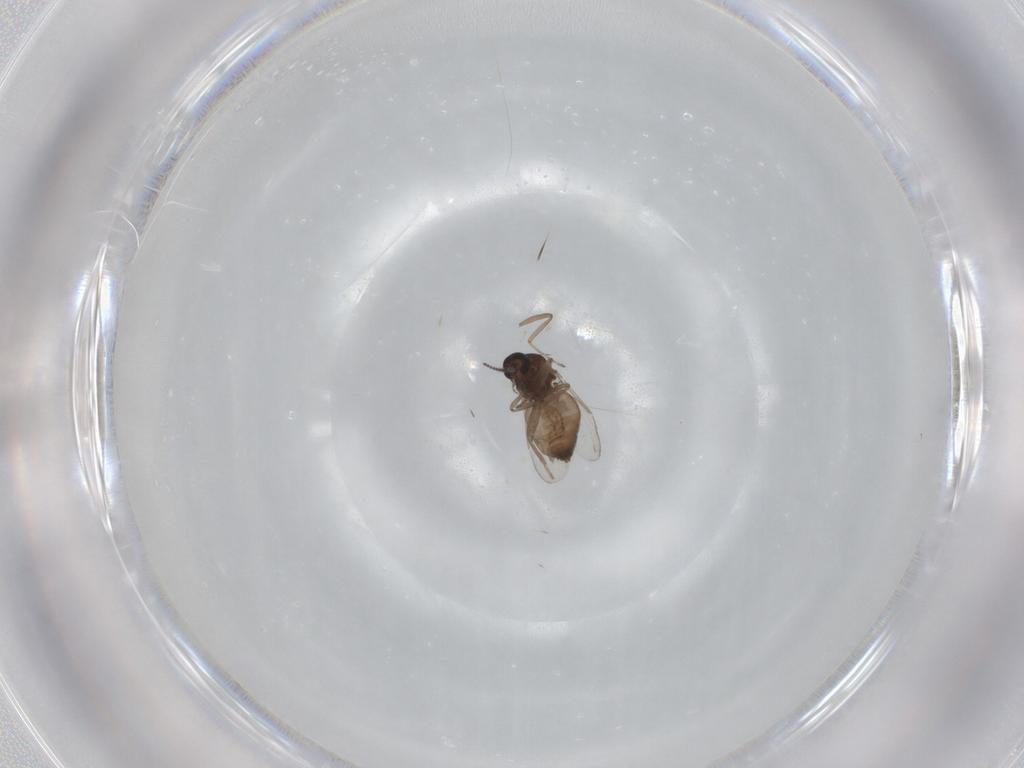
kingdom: Animalia
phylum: Arthropoda
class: Insecta
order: Diptera
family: Ceratopogonidae
